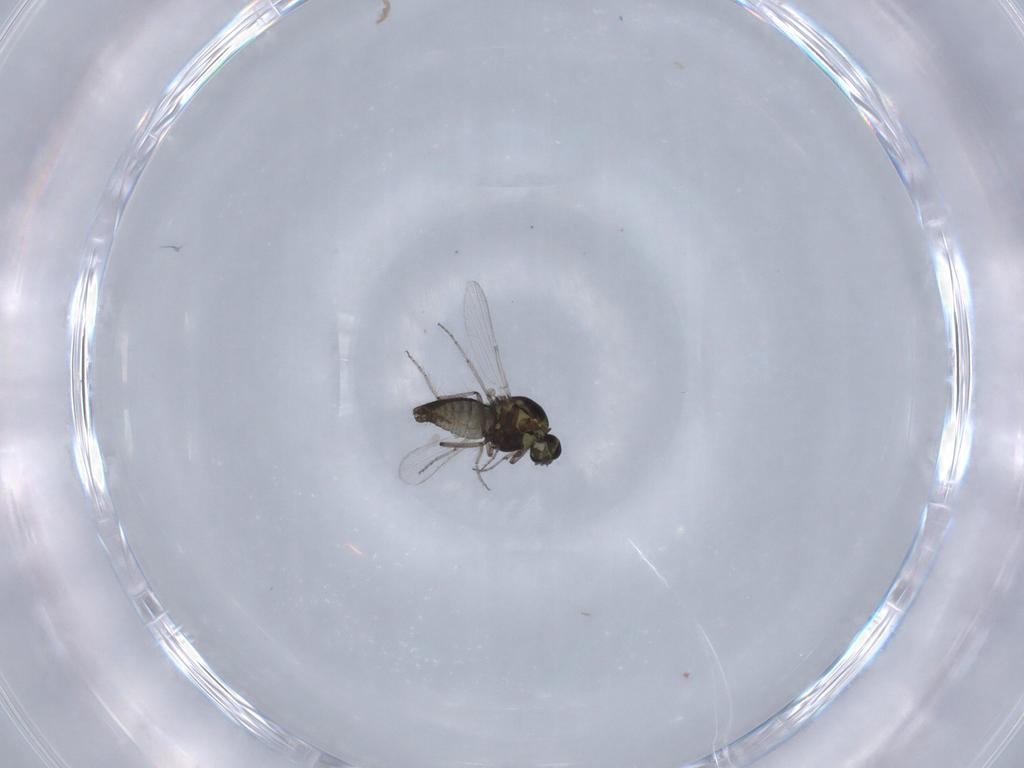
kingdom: Animalia
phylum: Arthropoda
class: Insecta
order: Diptera
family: Ceratopogonidae
